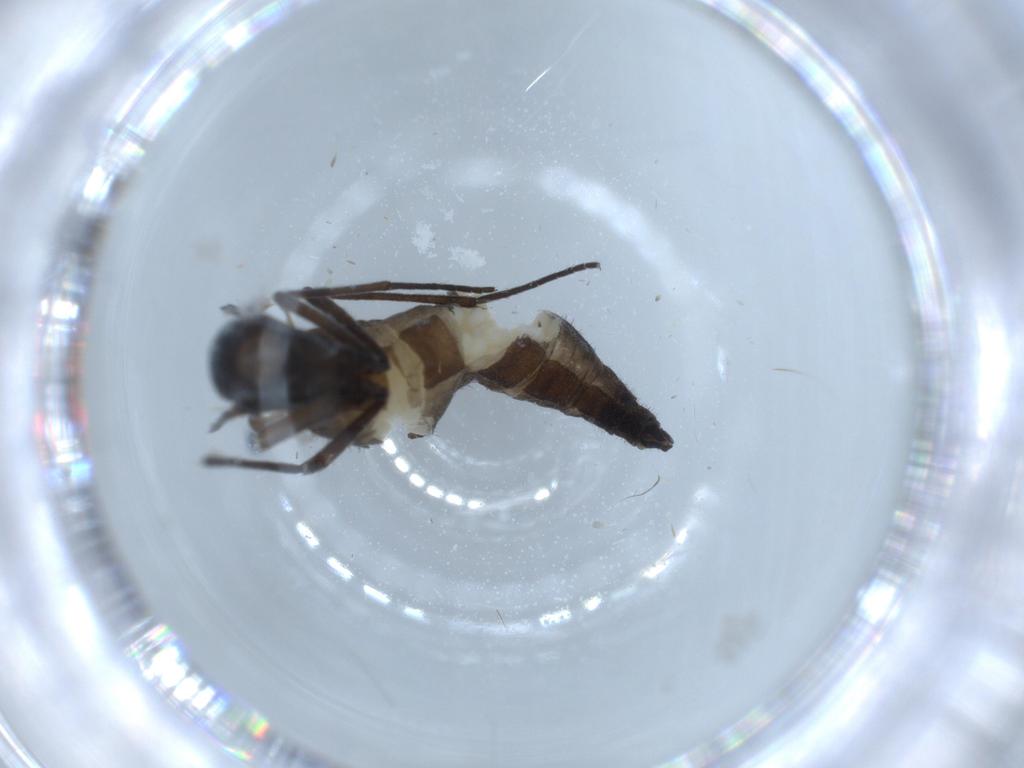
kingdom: Animalia
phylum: Arthropoda
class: Insecta
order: Diptera
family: Sciaridae
